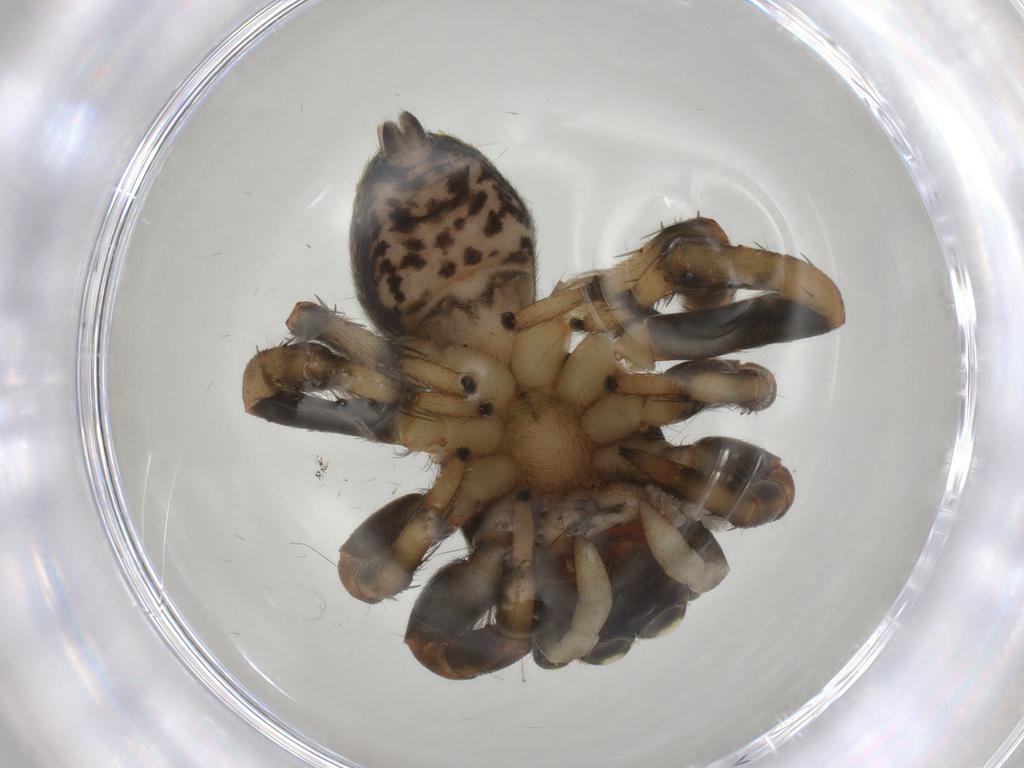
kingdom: Animalia
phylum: Arthropoda
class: Arachnida
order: Araneae
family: Salticidae
